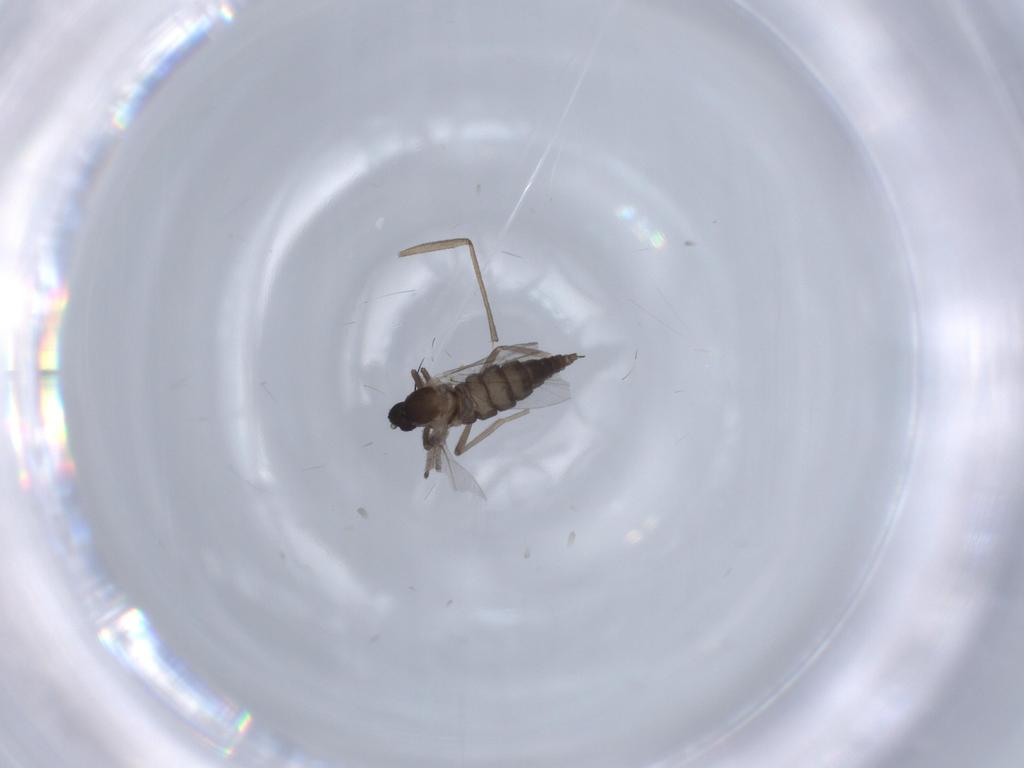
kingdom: Animalia
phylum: Arthropoda
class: Insecta
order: Diptera
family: Cecidomyiidae
